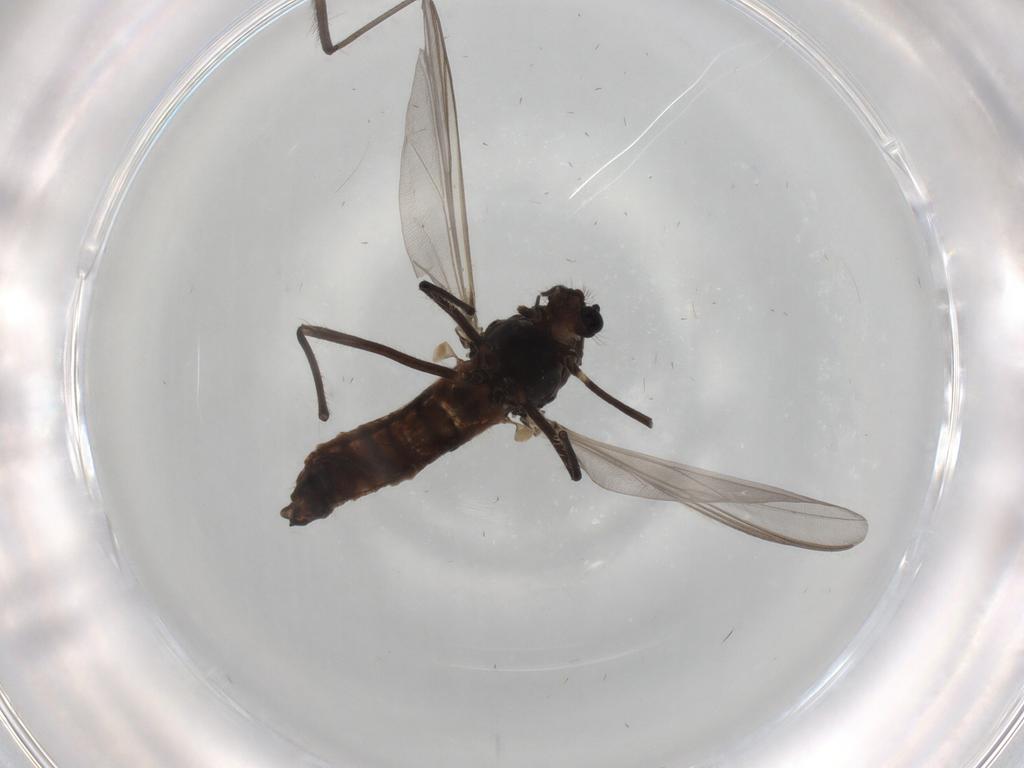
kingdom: Animalia
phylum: Arthropoda
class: Insecta
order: Diptera
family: Chironomidae
